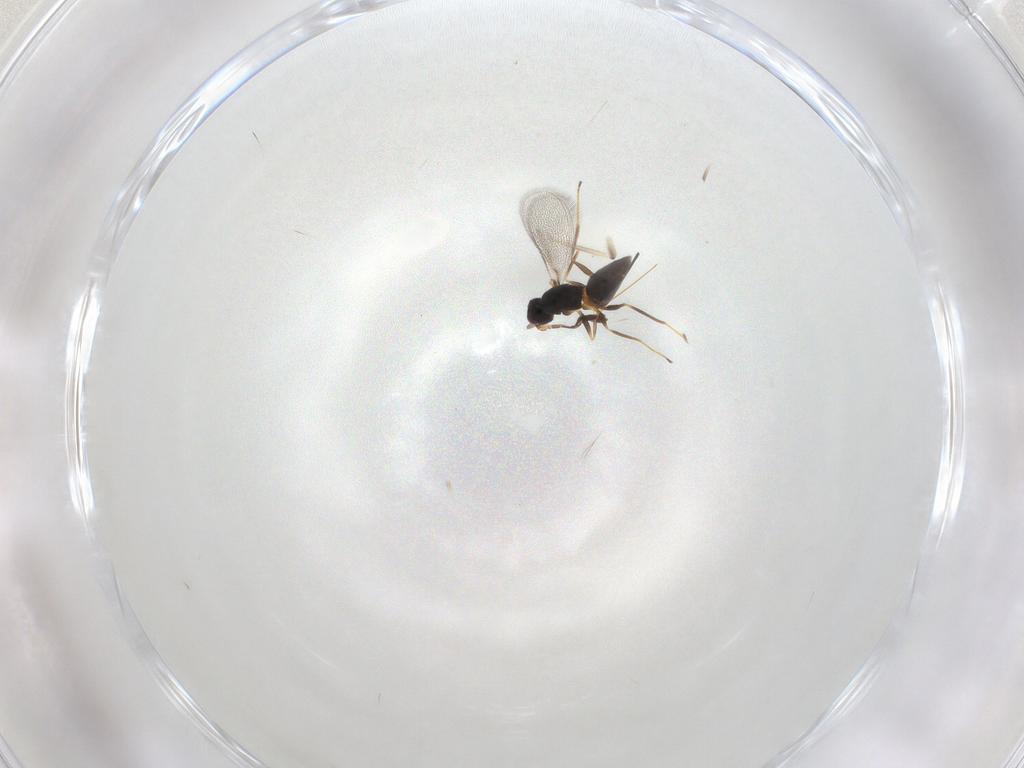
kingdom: Animalia
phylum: Arthropoda
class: Insecta
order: Hymenoptera
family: Mymaridae
